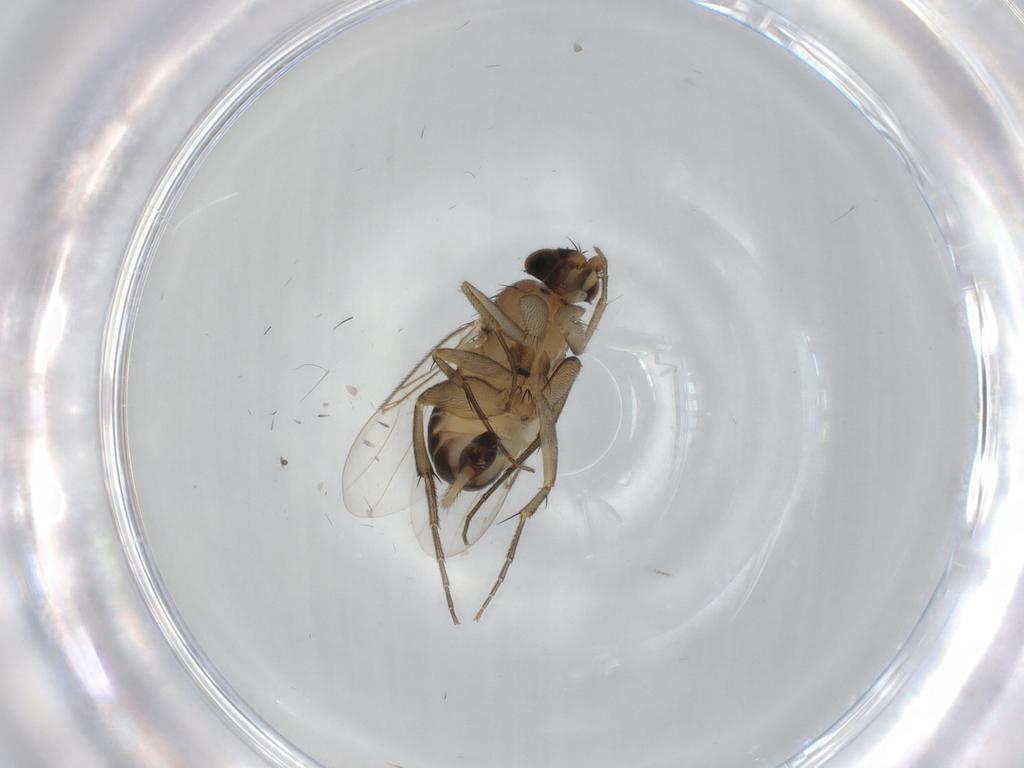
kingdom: Animalia
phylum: Arthropoda
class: Insecta
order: Diptera
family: Phoridae
